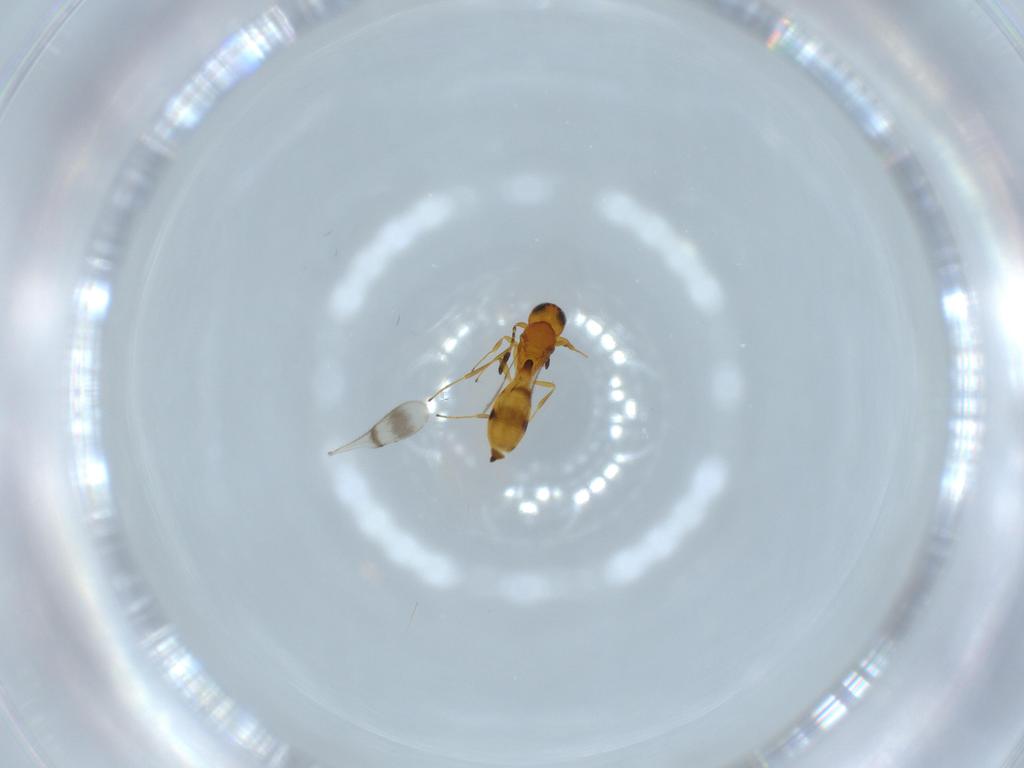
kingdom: Animalia
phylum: Arthropoda
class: Insecta
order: Hymenoptera
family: Scelionidae
